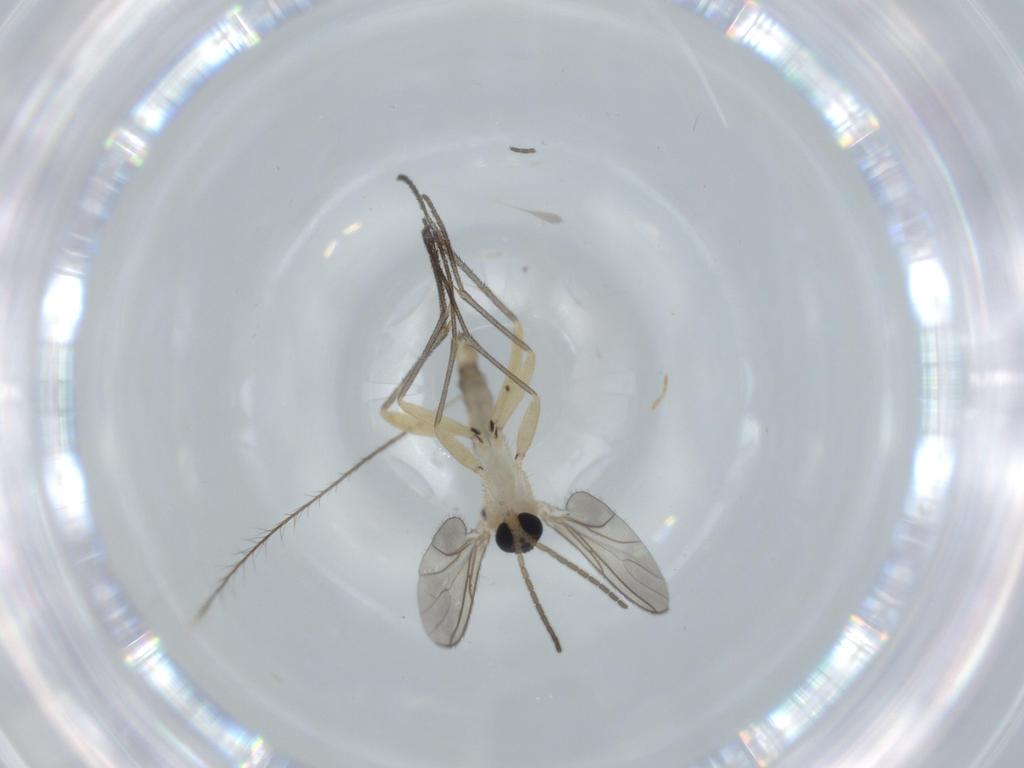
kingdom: Animalia
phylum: Arthropoda
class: Insecta
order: Diptera
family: Sciaridae
